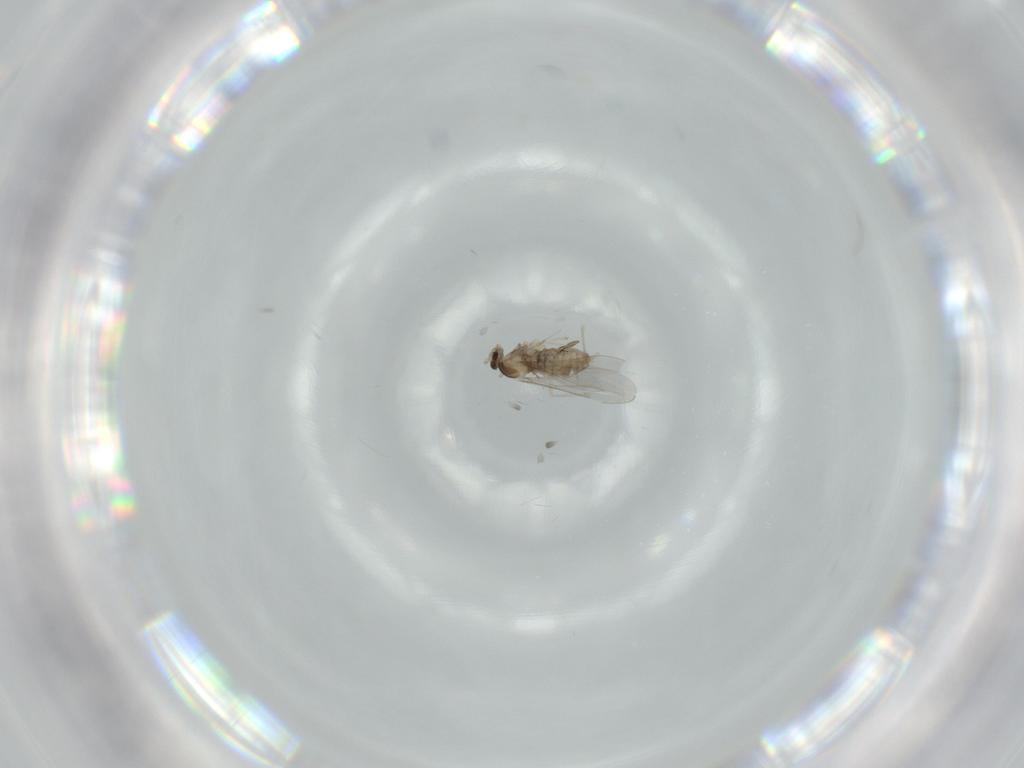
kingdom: Animalia
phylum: Arthropoda
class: Insecta
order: Diptera
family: Cecidomyiidae
